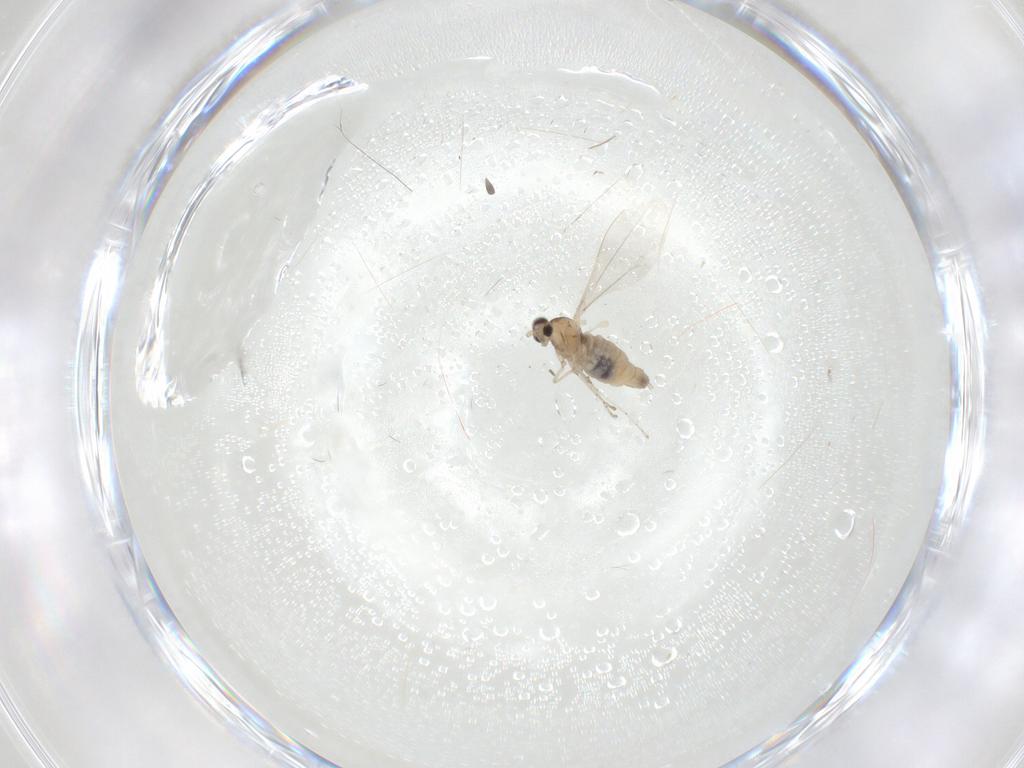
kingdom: Animalia
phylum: Arthropoda
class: Insecta
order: Diptera
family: Cecidomyiidae
